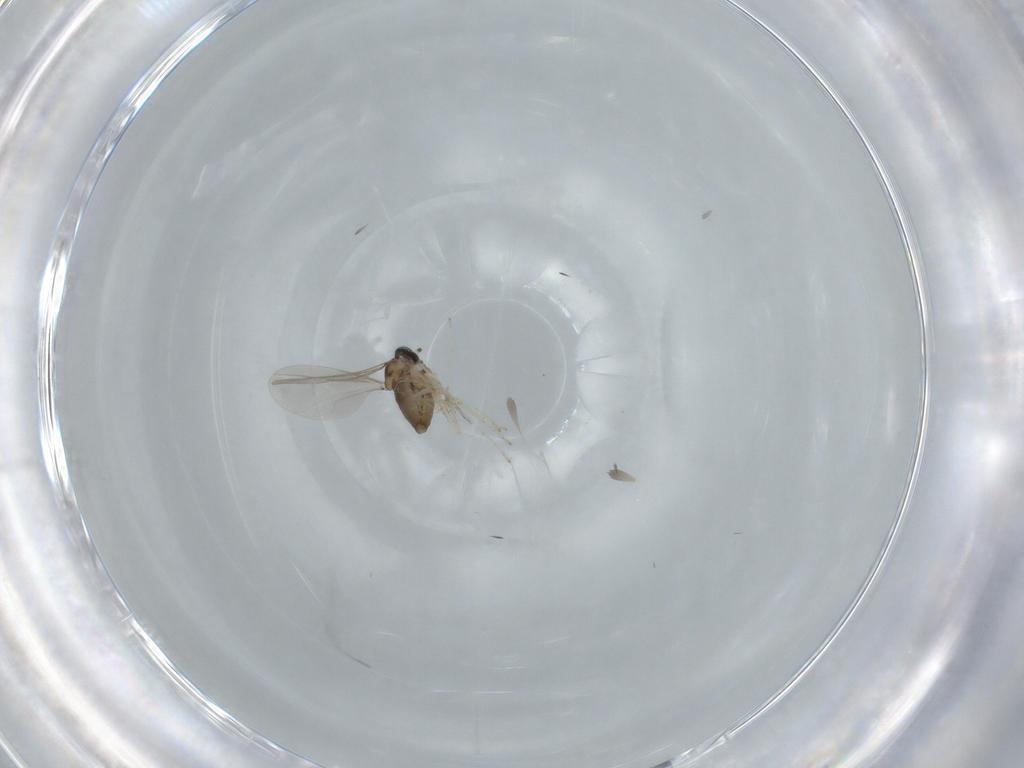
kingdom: Animalia
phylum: Arthropoda
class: Insecta
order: Diptera
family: Cecidomyiidae
